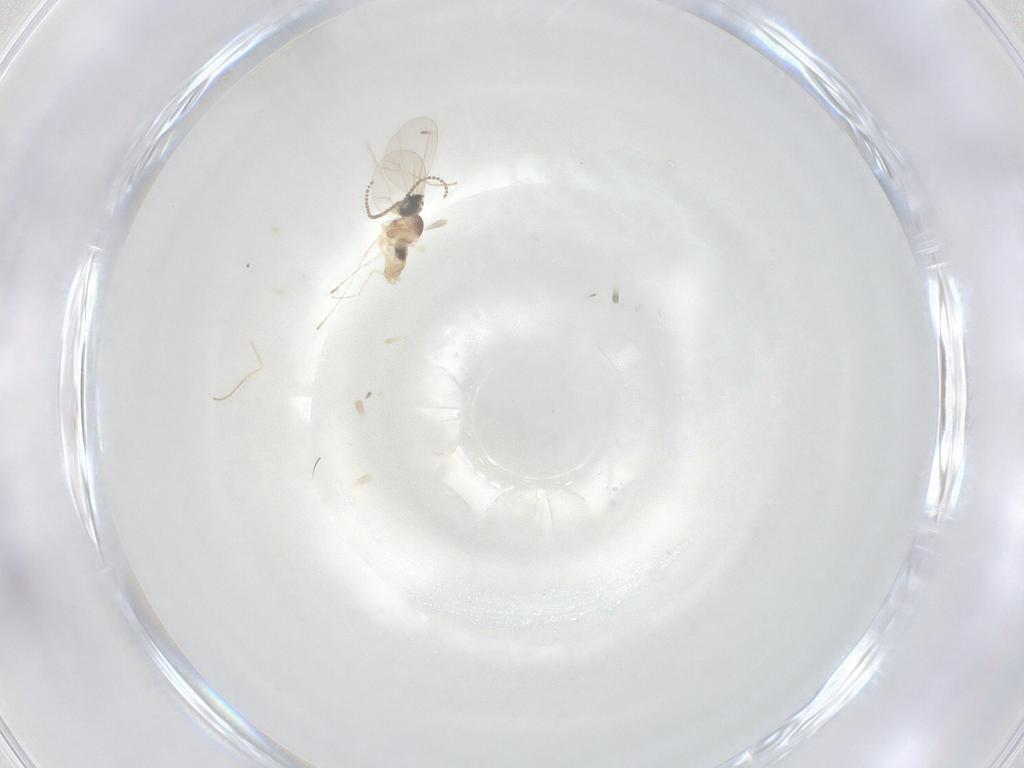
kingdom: Animalia
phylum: Arthropoda
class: Insecta
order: Diptera
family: Cecidomyiidae
